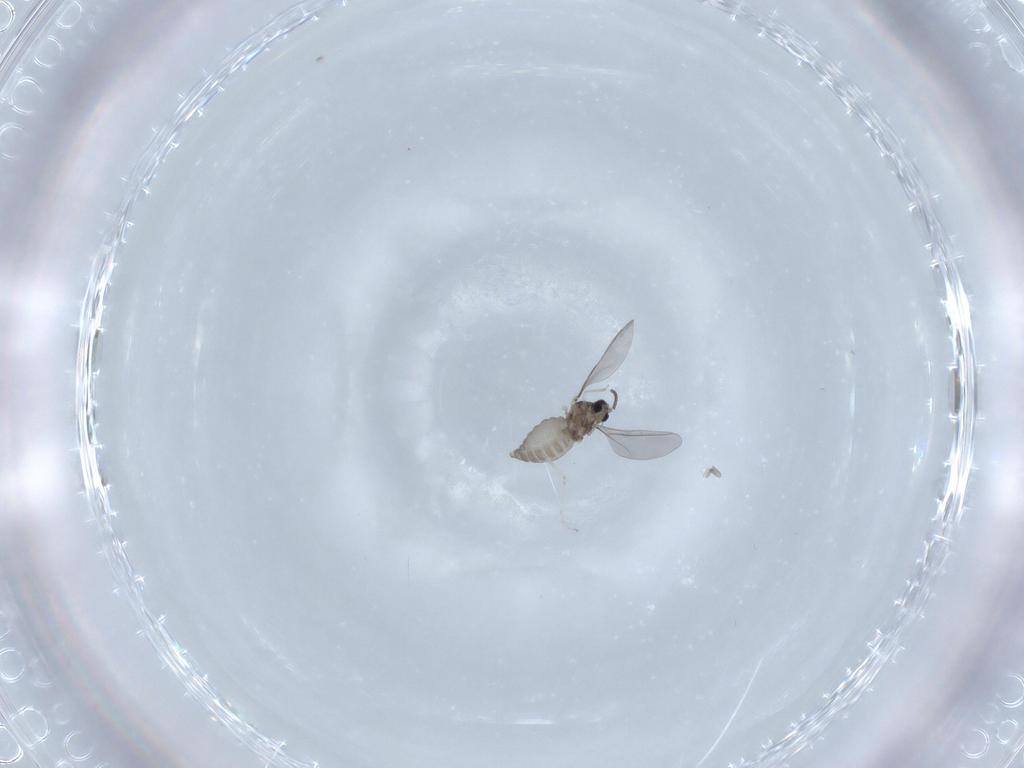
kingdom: Animalia
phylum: Arthropoda
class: Insecta
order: Diptera
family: Cecidomyiidae
